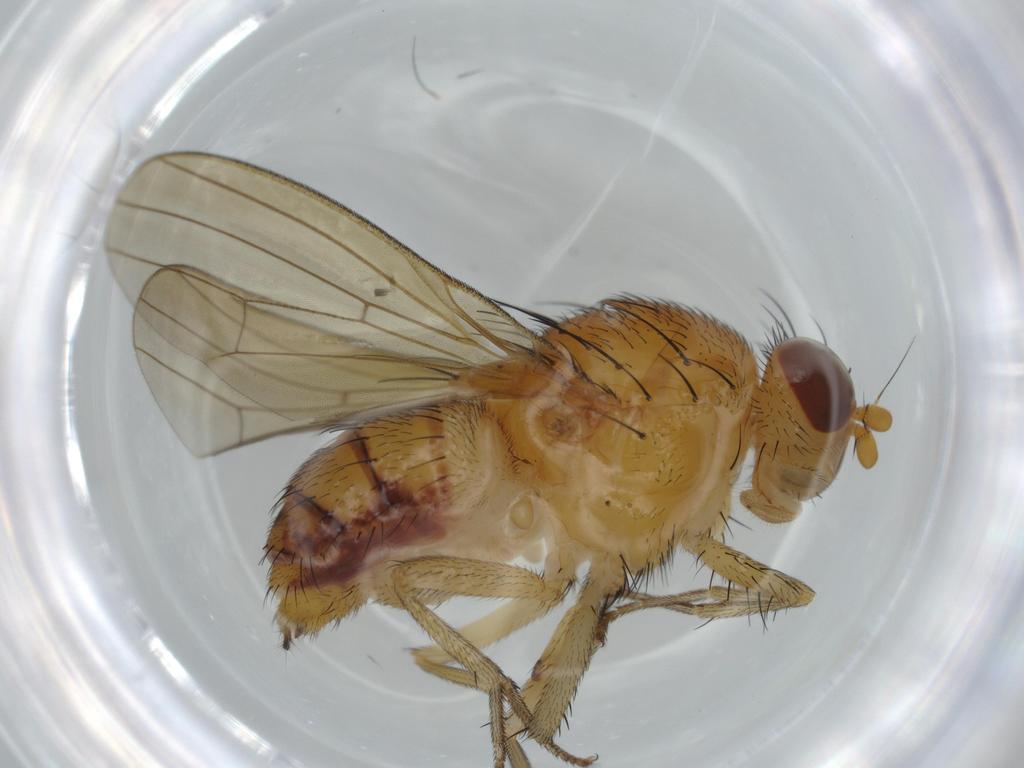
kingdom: Animalia
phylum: Arthropoda
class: Insecta
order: Diptera
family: Lauxaniidae
